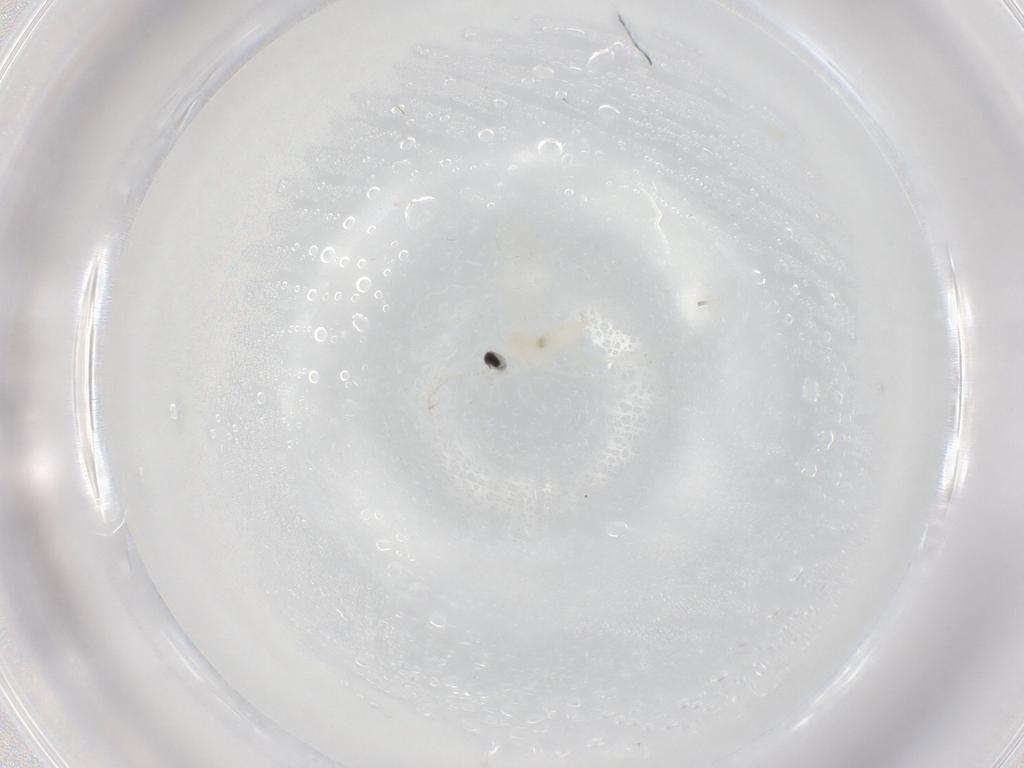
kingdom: Animalia
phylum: Arthropoda
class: Insecta
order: Diptera
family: Cecidomyiidae
